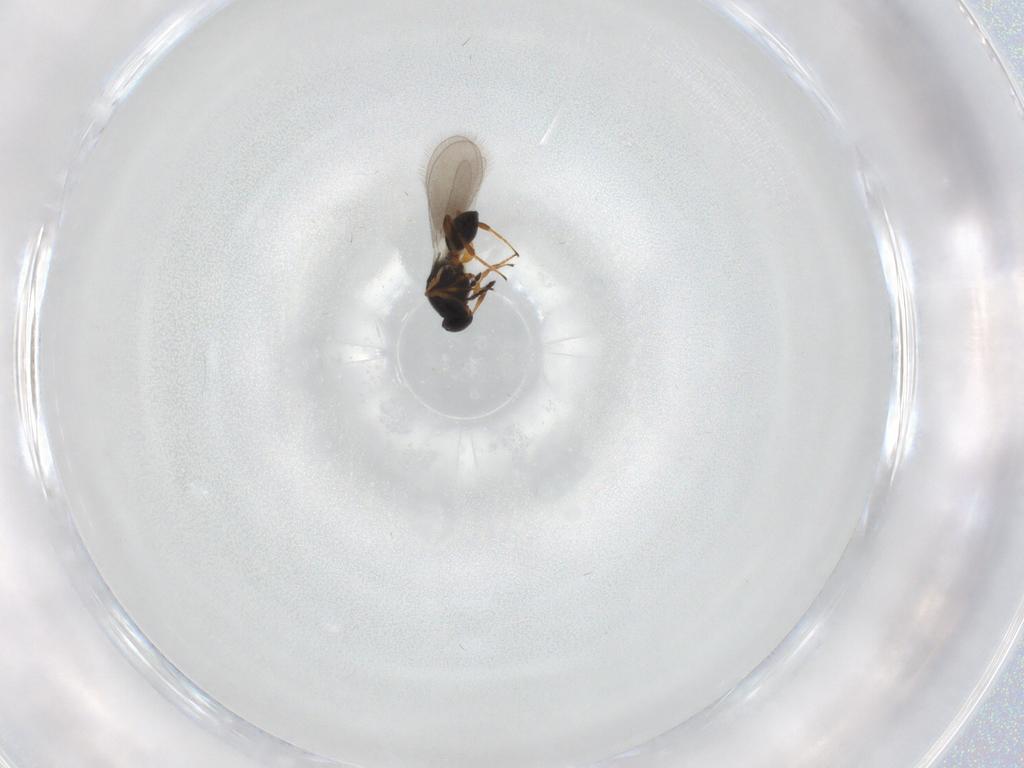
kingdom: Animalia
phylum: Arthropoda
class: Insecta
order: Hymenoptera
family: Platygastridae
